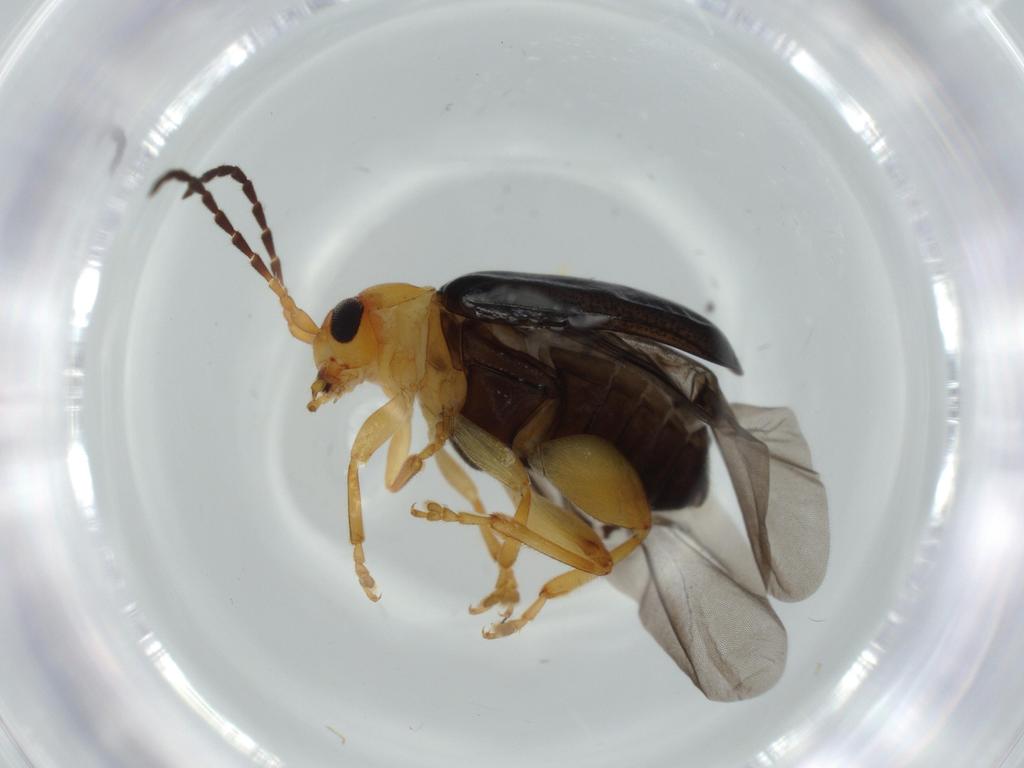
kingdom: Animalia
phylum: Arthropoda
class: Insecta
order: Coleoptera
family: Chrysomelidae
